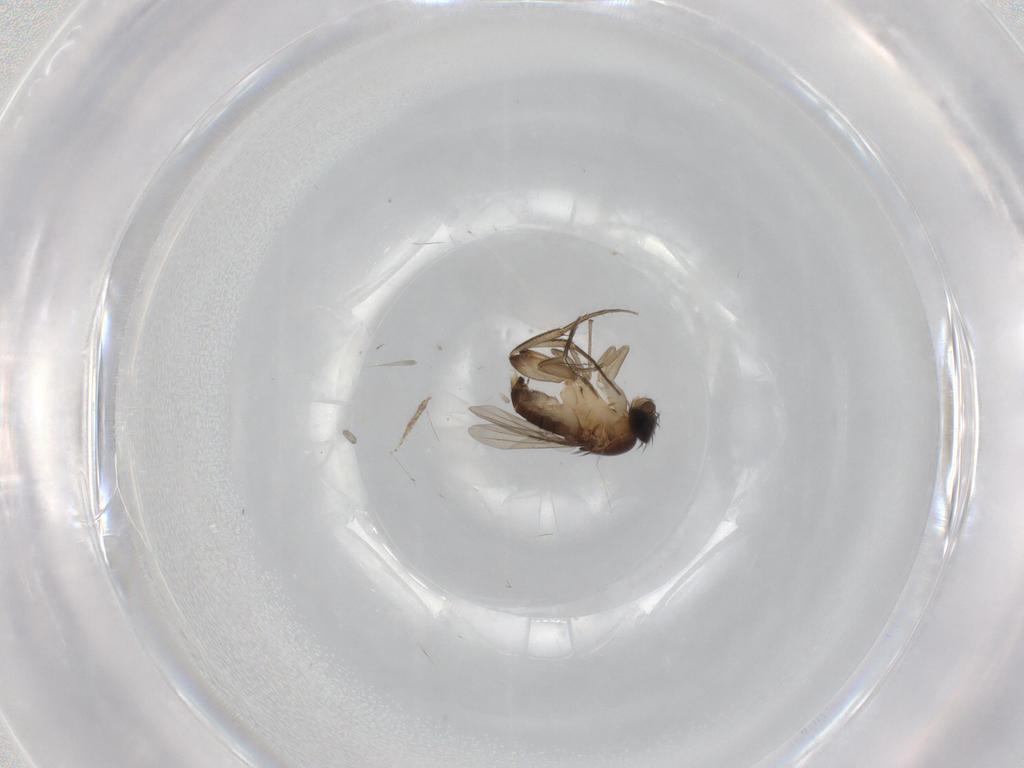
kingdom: Animalia
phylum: Arthropoda
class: Insecta
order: Diptera
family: Phoridae
